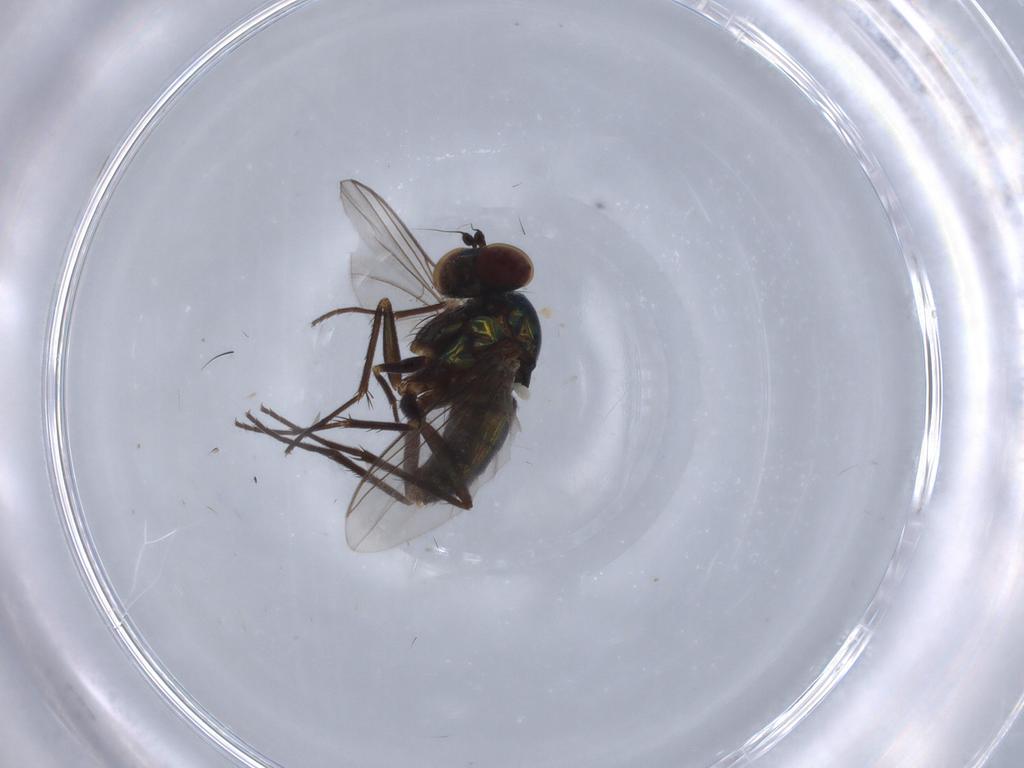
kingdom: Animalia
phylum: Arthropoda
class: Insecta
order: Diptera
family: Dolichopodidae
